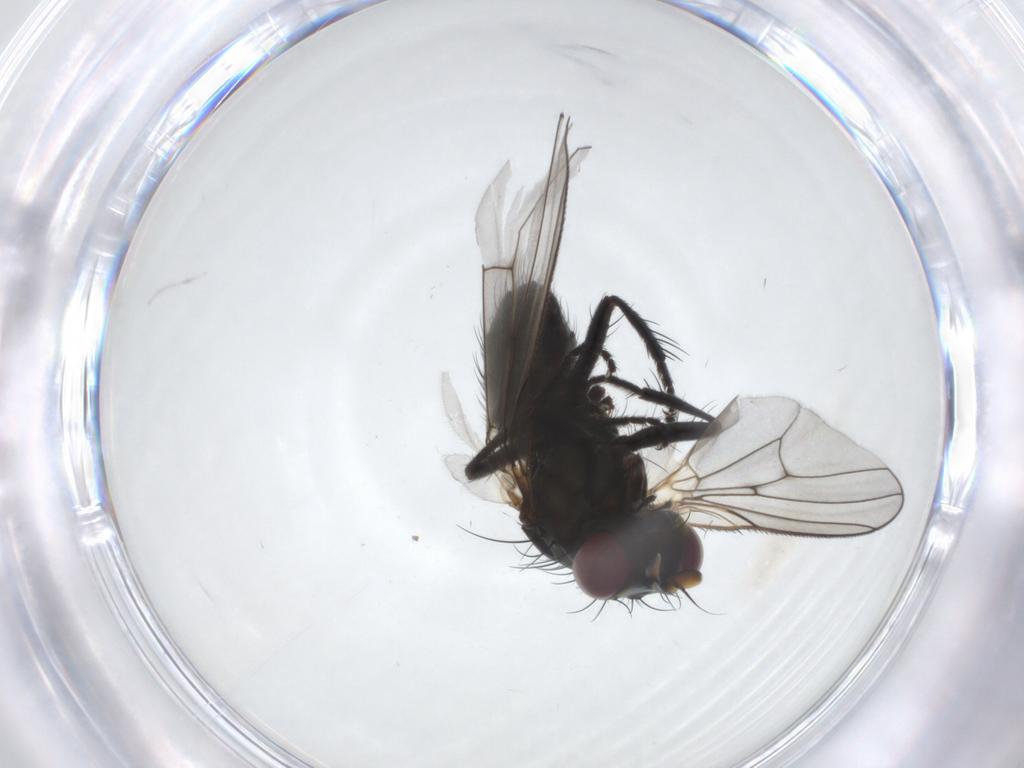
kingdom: Animalia
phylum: Arthropoda
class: Insecta
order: Diptera
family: Muscidae
